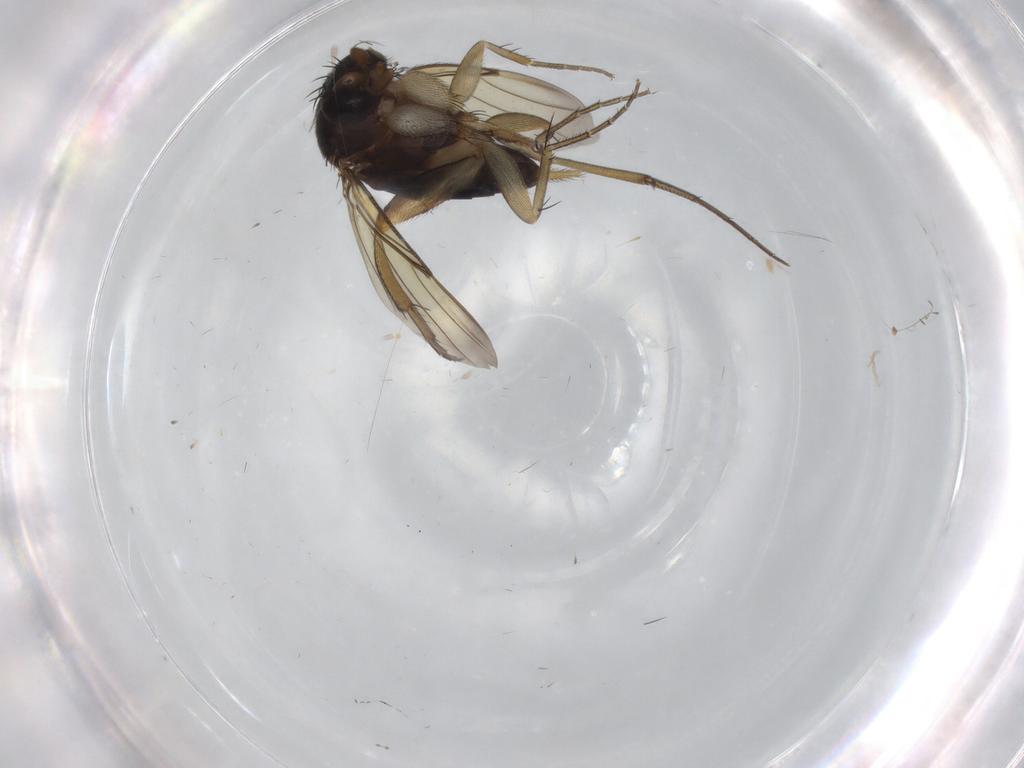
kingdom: Animalia
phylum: Arthropoda
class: Insecta
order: Diptera
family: Phoridae
